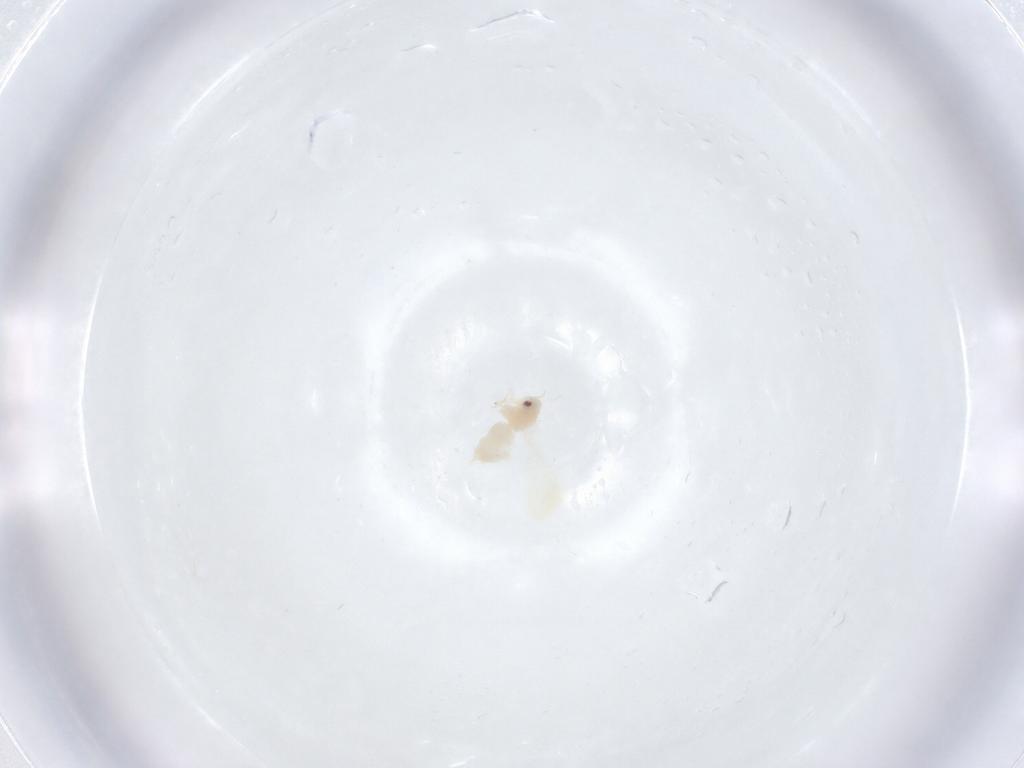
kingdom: Animalia
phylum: Arthropoda
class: Insecta
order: Hemiptera
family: Aleyrodidae
